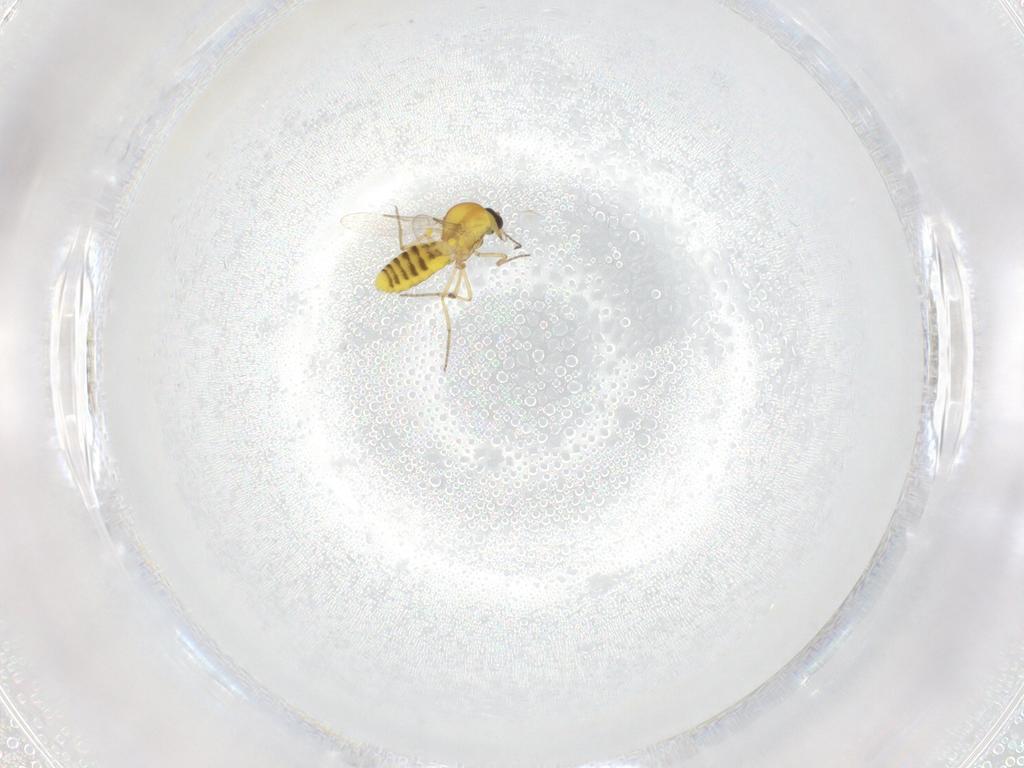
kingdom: Animalia
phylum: Arthropoda
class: Insecta
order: Diptera
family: Ceratopogonidae
